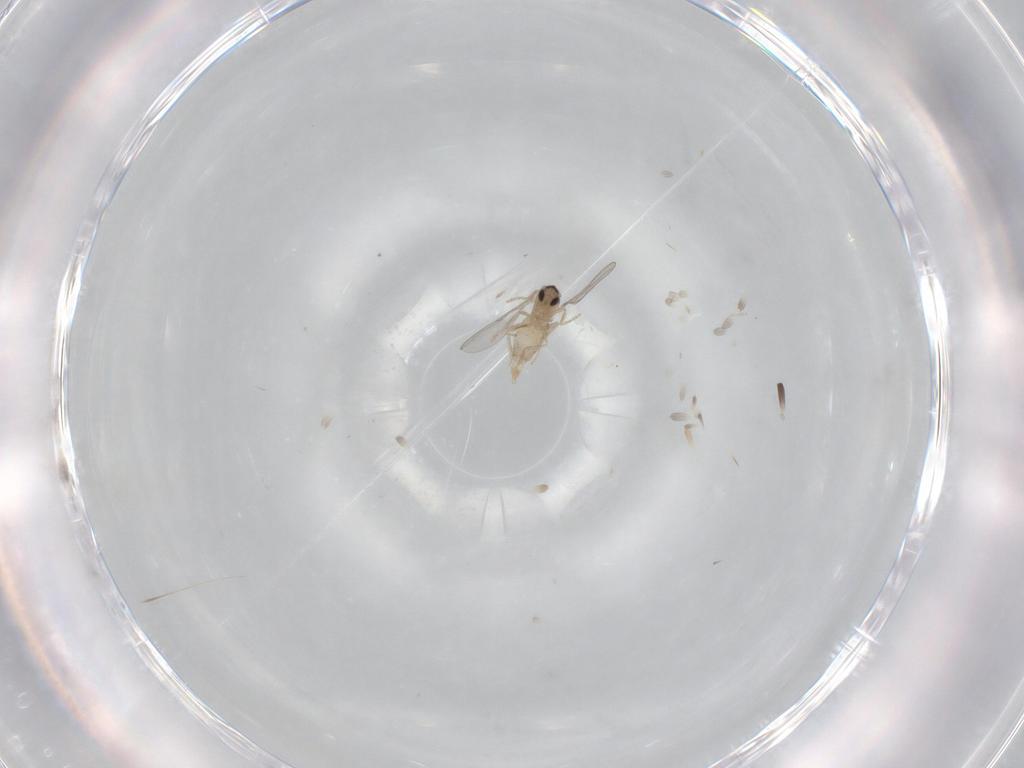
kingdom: Animalia
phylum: Arthropoda
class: Insecta
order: Diptera
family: Cecidomyiidae
